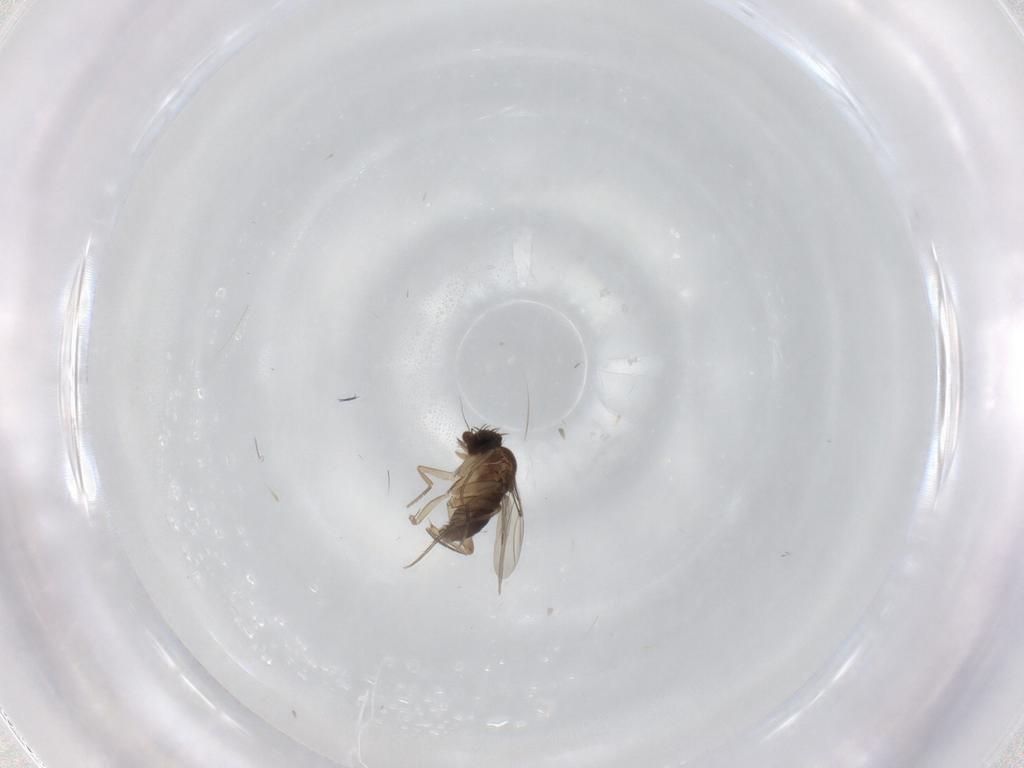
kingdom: Animalia
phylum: Arthropoda
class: Insecta
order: Diptera
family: Phoridae
